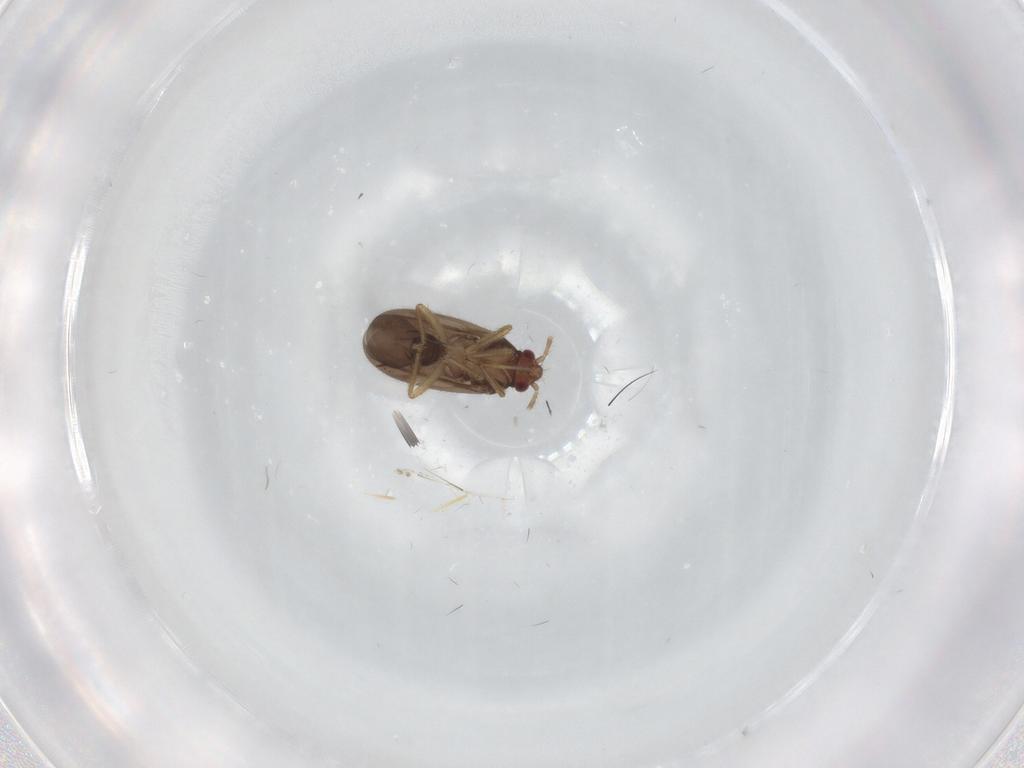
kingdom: Animalia
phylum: Arthropoda
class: Insecta
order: Hemiptera
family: Ceratocombidae
